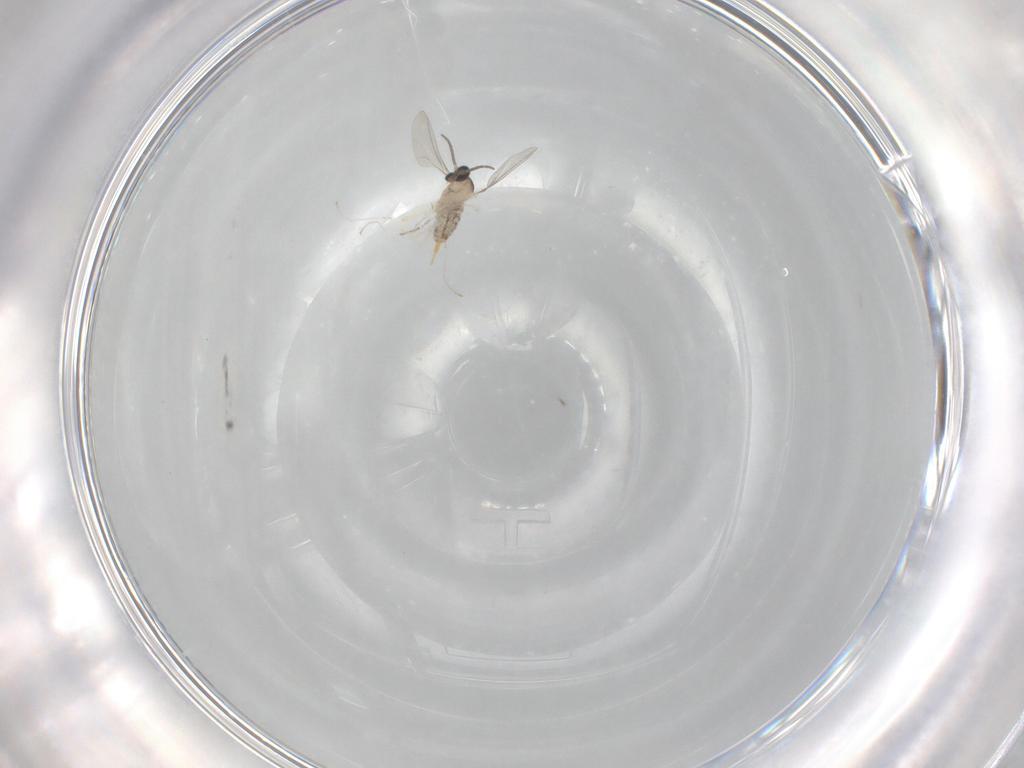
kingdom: Animalia
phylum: Arthropoda
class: Insecta
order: Diptera
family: Cecidomyiidae
